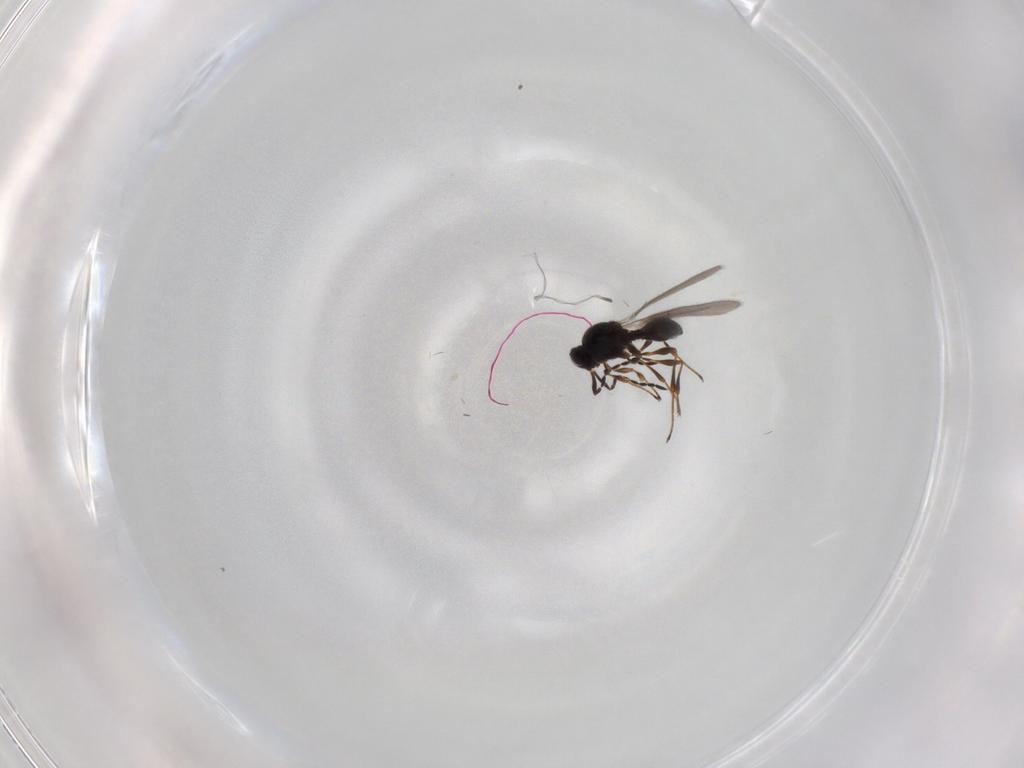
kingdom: Animalia
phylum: Arthropoda
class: Insecta
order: Hymenoptera
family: Platygastridae
